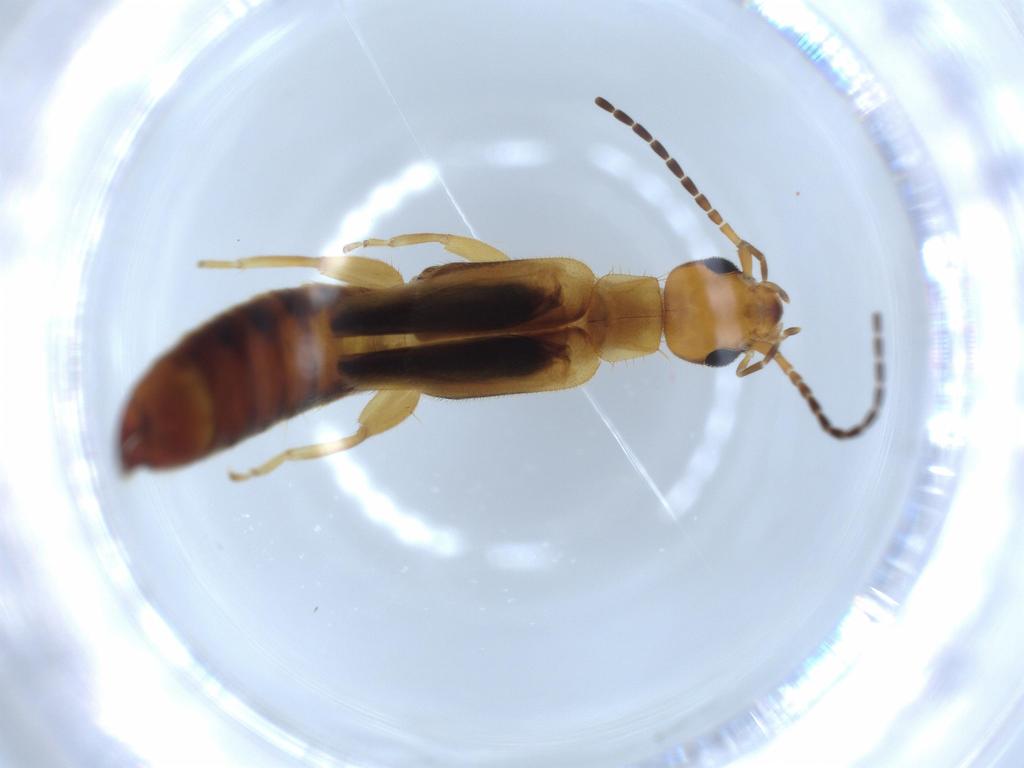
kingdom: Animalia
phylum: Arthropoda
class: Insecta
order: Dermaptera
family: Forficulidae
